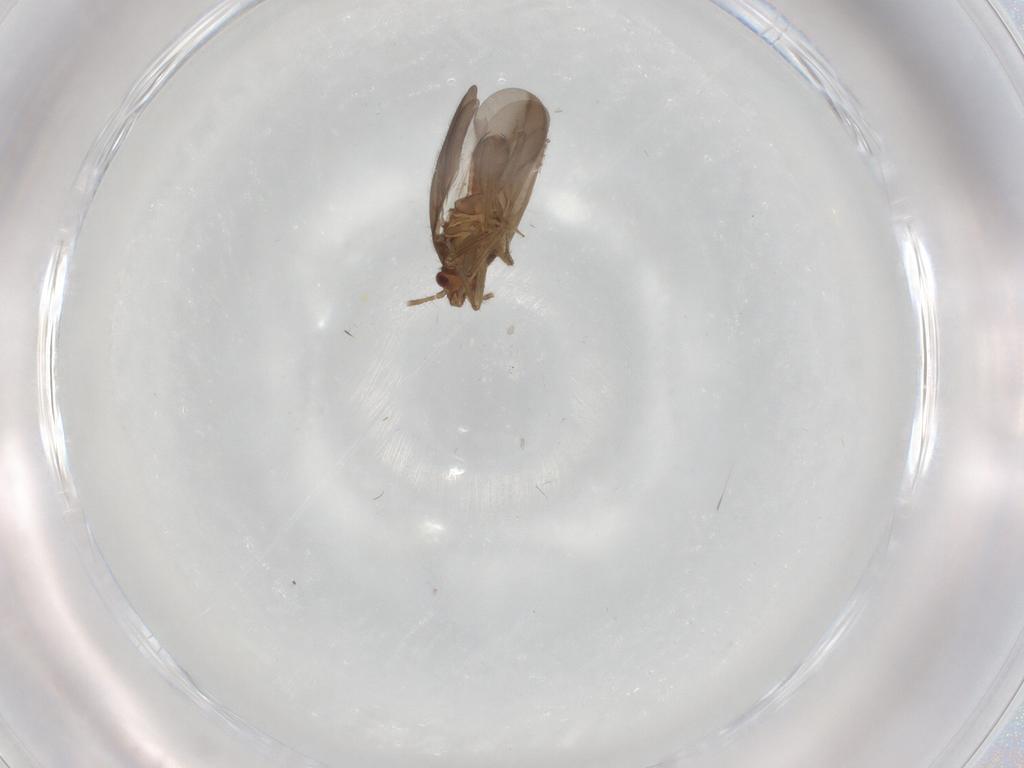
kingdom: Animalia
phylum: Arthropoda
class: Insecta
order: Hemiptera
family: Ceratocombidae
